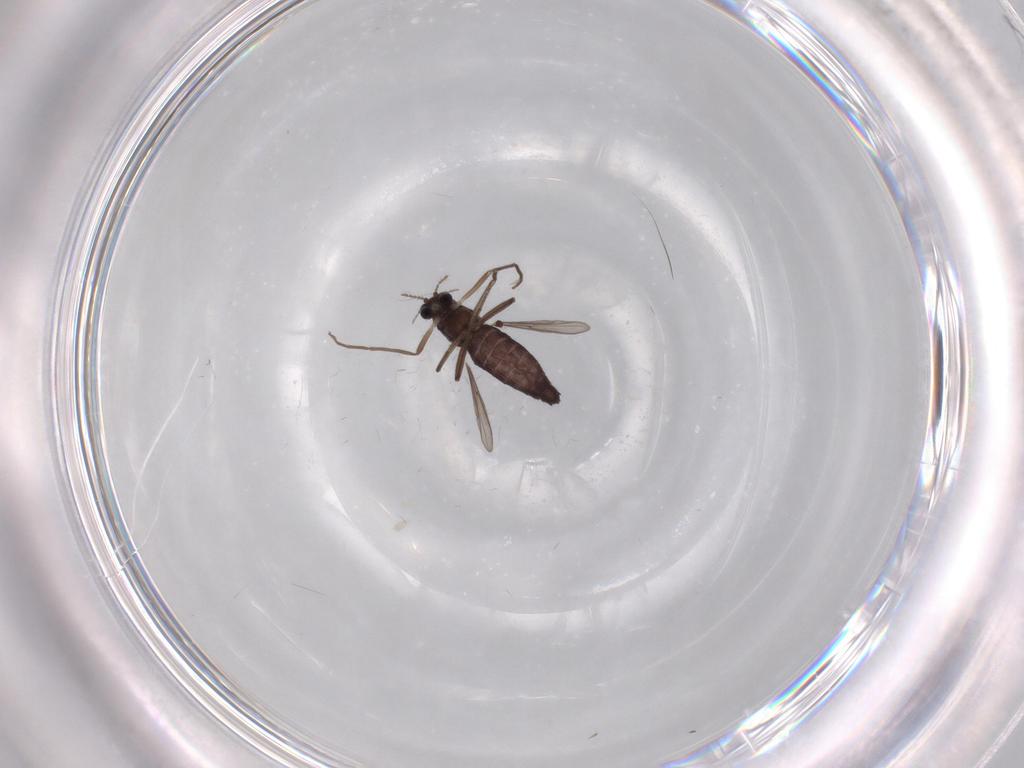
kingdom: Animalia
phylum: Arthropoda
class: Insecta
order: Diptera
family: Chironomidae
